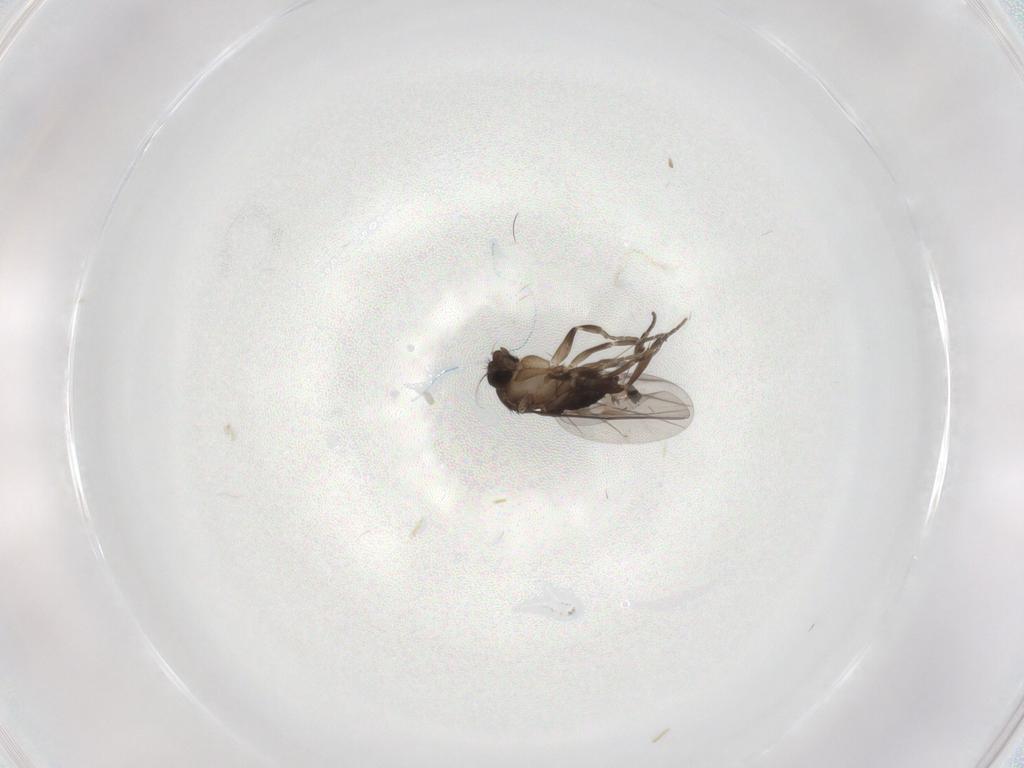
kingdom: Animalia
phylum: Arthropoda
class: Insecta
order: Diptera
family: Phoridae
